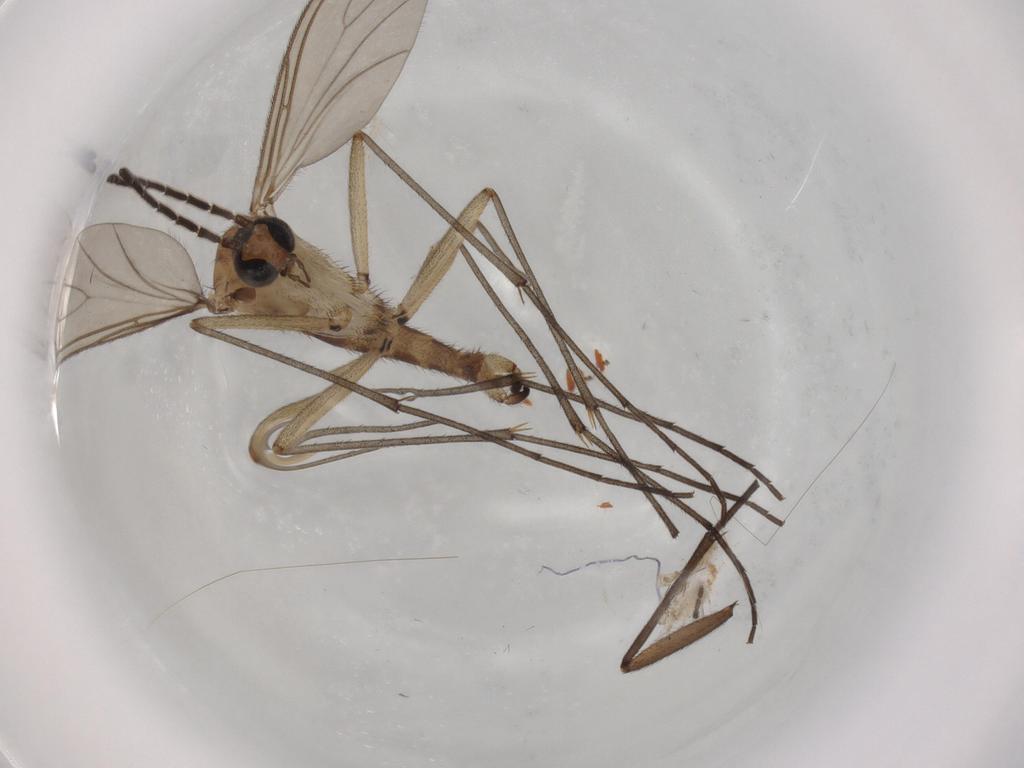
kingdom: Animalia
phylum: Arthropoda
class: Insecta
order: Diptera
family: Sciaridae
